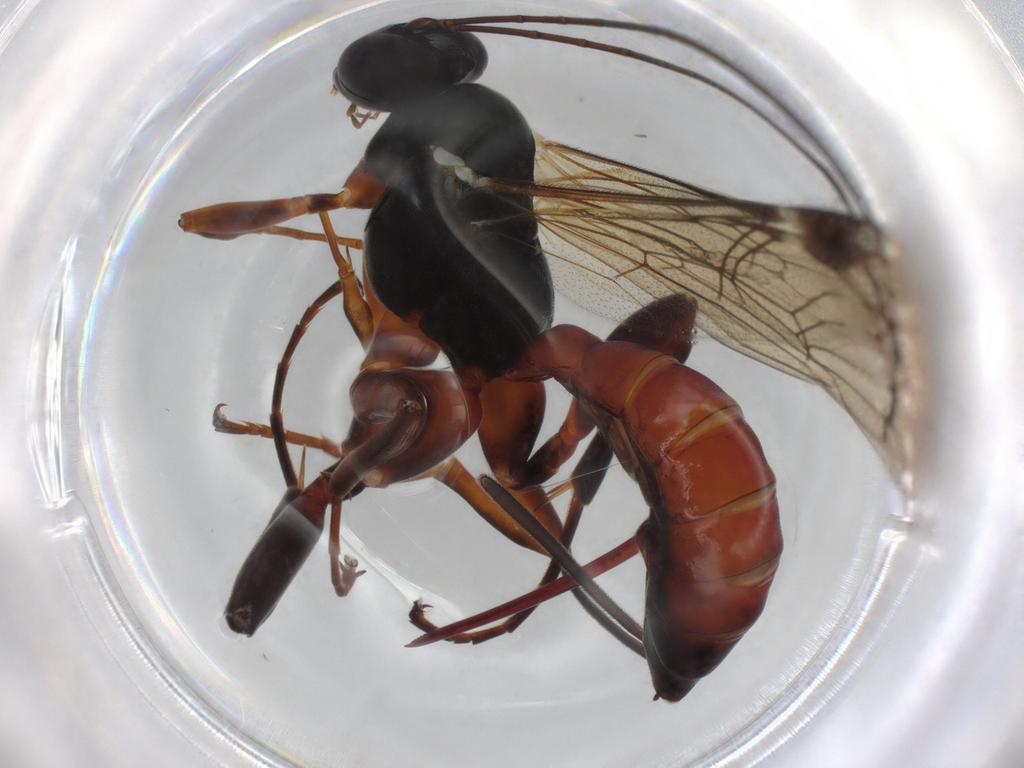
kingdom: Animalia
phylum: Arthropoda
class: Insecta
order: Hymenoptera
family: Ichneumonidae
